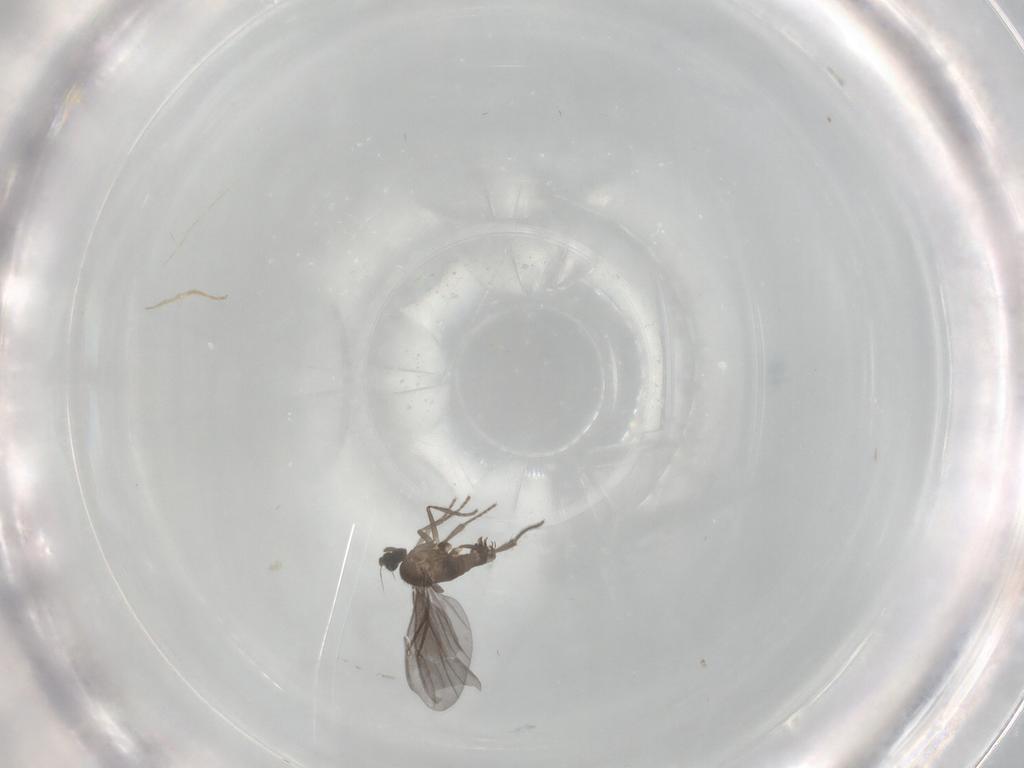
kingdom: Animalia
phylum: Arthropoda
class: Insecta
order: Diptera
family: Phoridae
